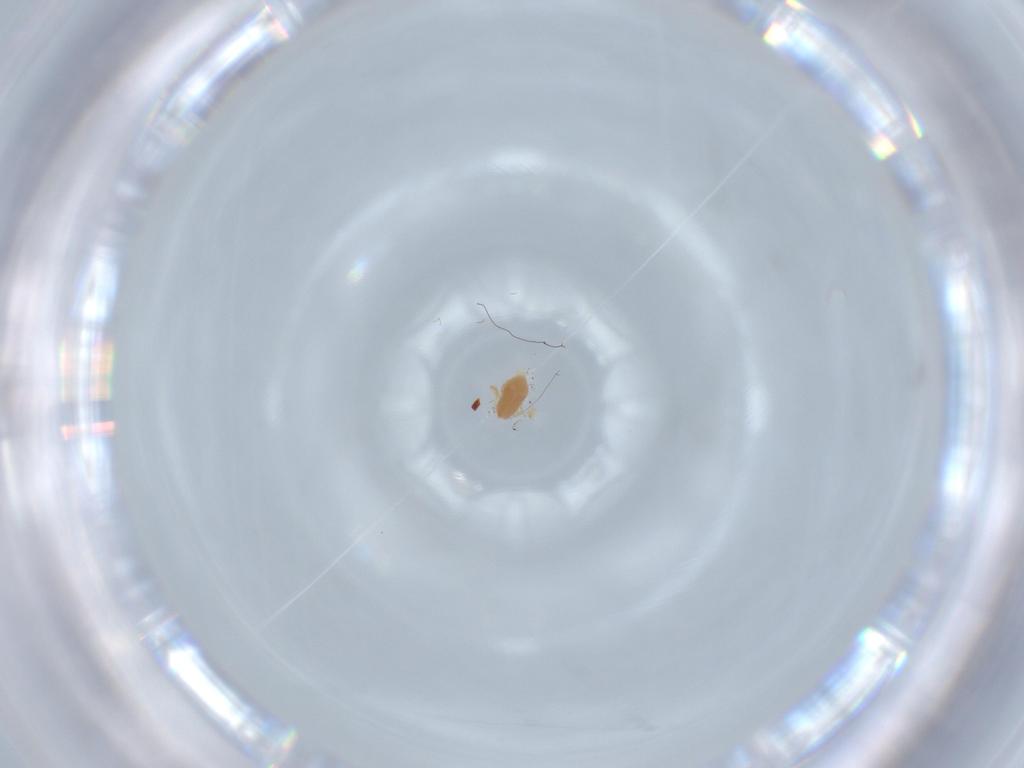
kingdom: Animalia
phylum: Arthropoda
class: Arachnida
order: Trombidiformes
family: Eupodidae
